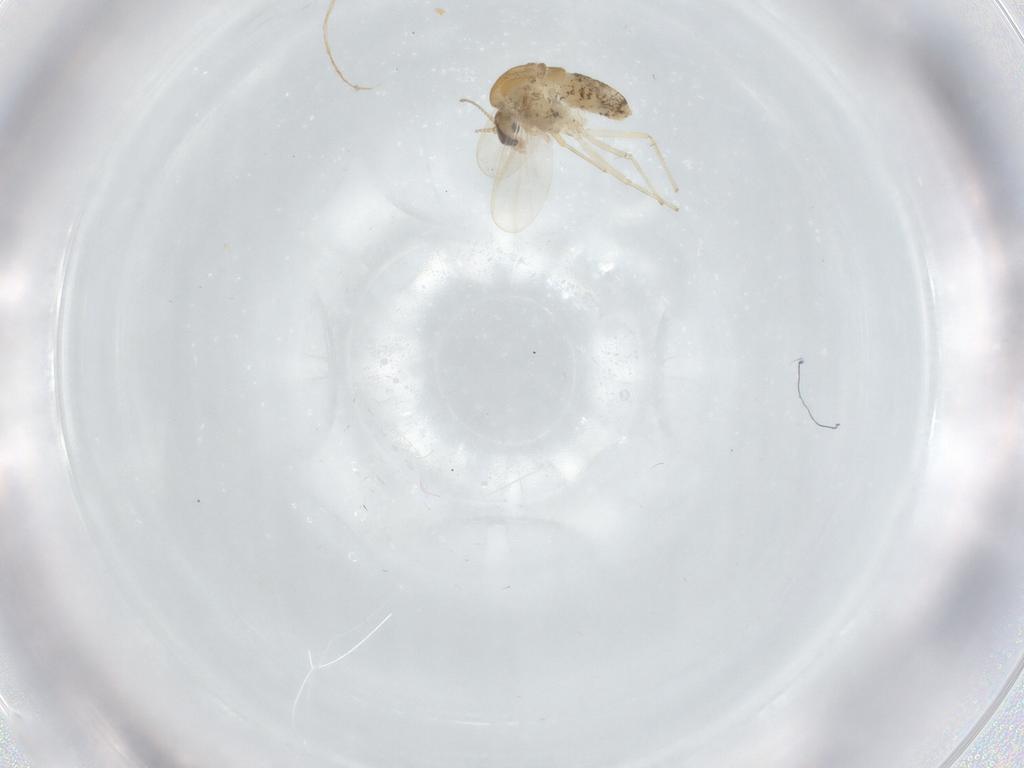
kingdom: Animalia
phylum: Arthropoda
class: Insecta
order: Diptera
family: Chironomidae
